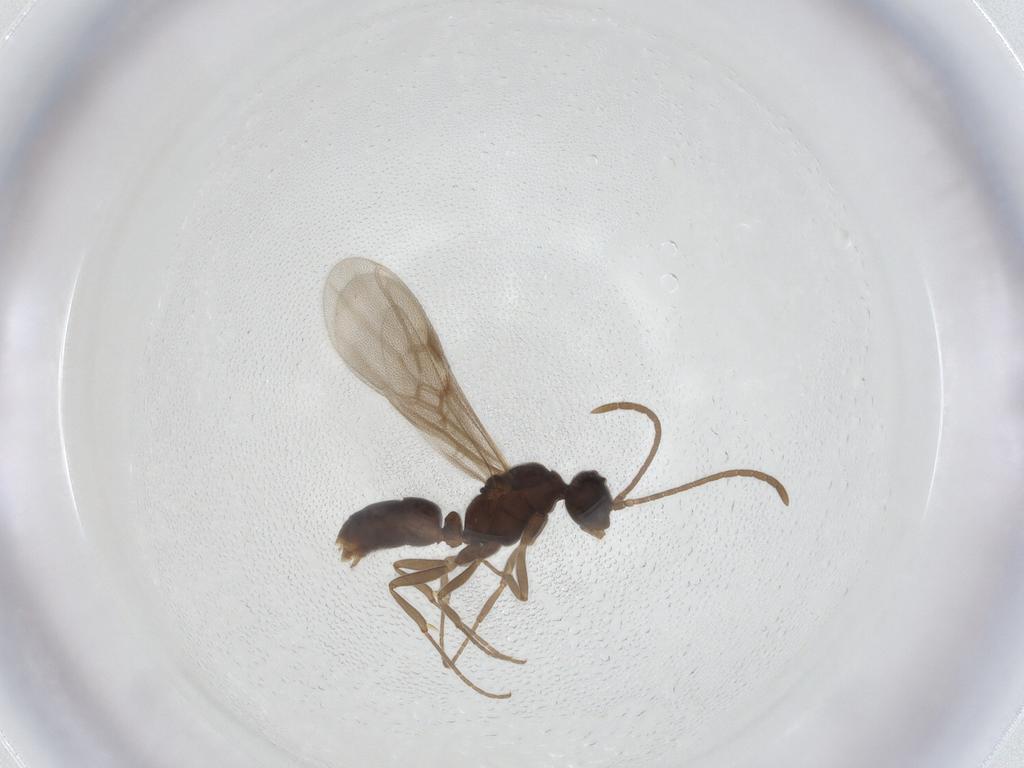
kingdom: Animalia
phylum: Arthropoda
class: Insecta
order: Hymenoptera
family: Formicidae
